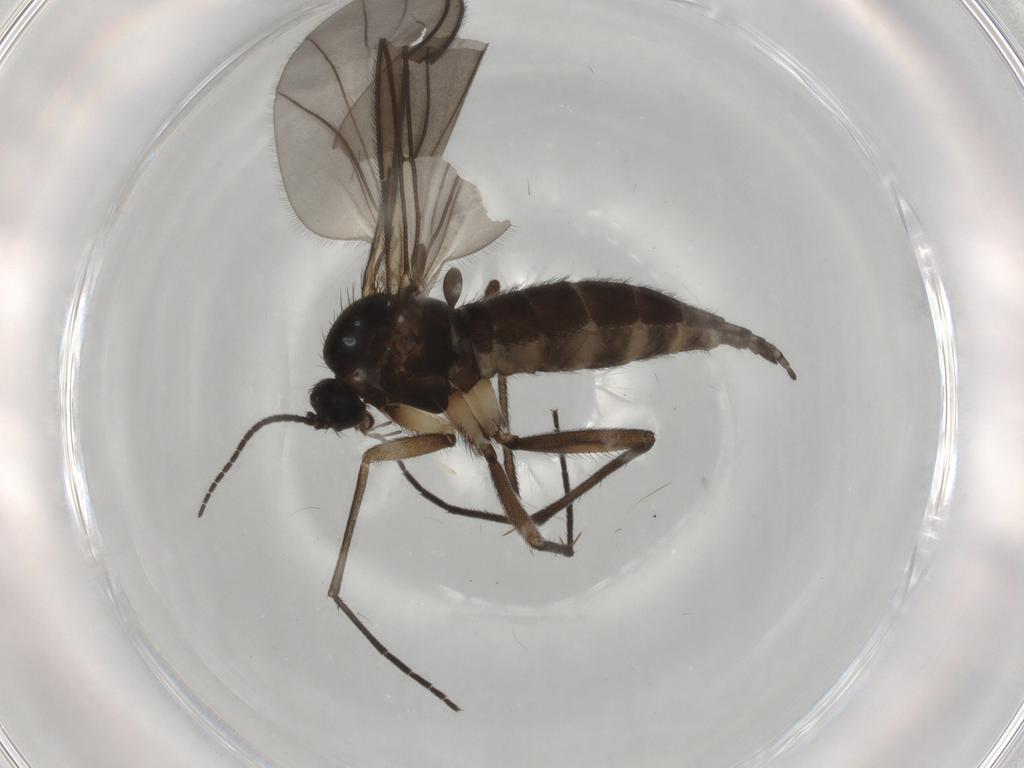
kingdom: Animalia
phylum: Arthropoda
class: Insecta
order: Diptera
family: Sciaridae
